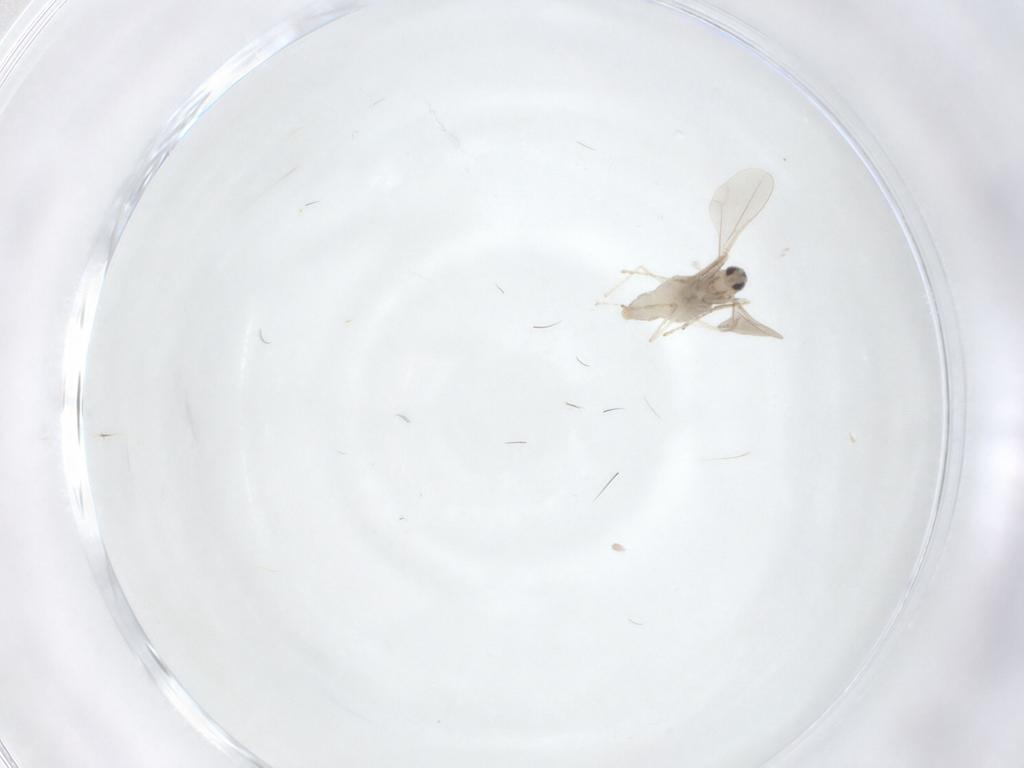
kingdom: Animalia
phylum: Arthropoda
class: Insecta
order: Diptera
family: Cecidomyiidae
